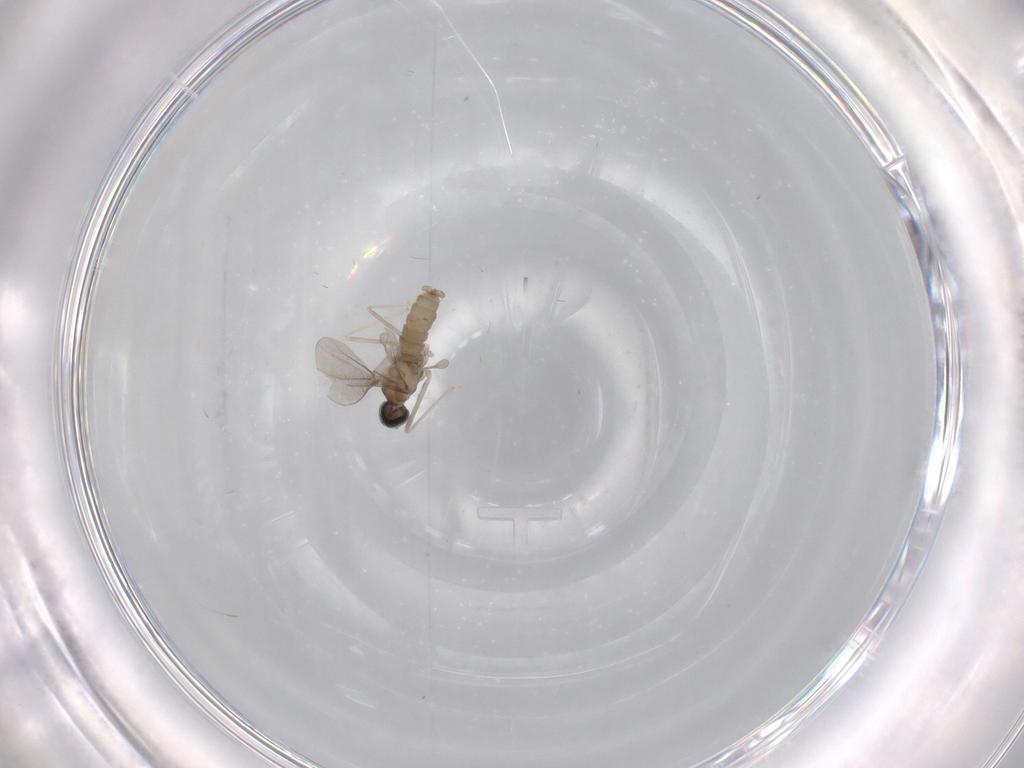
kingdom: Animalia
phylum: Arthropoda
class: Insecta
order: Diptera
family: Cecidomyiidae
